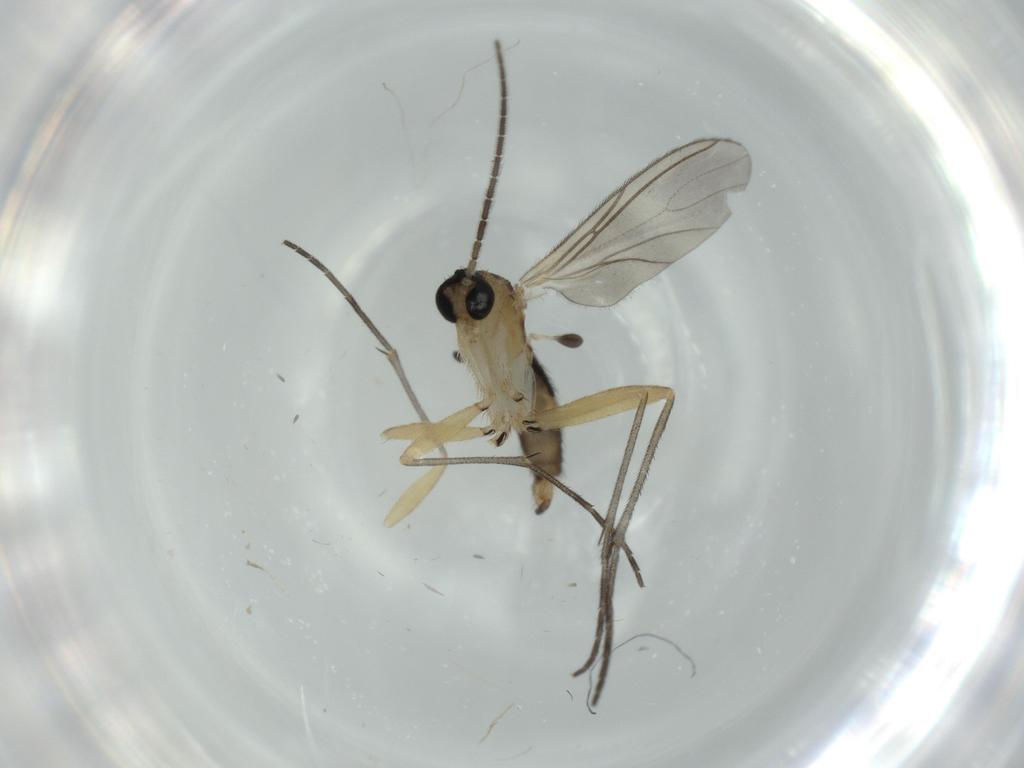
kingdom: Animalia
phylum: Arthropoda
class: Insecta
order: Diptera
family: Sciaridae
